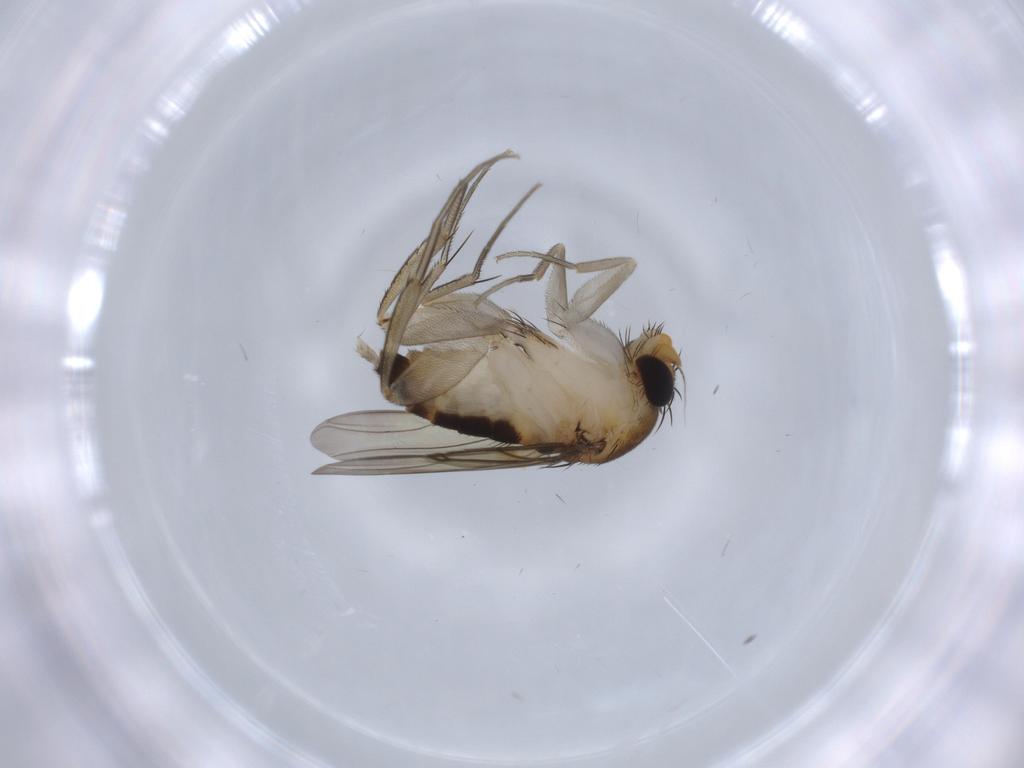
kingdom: Animalia
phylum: Arthropoda
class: Insecta
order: Diptera
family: Phoridae
